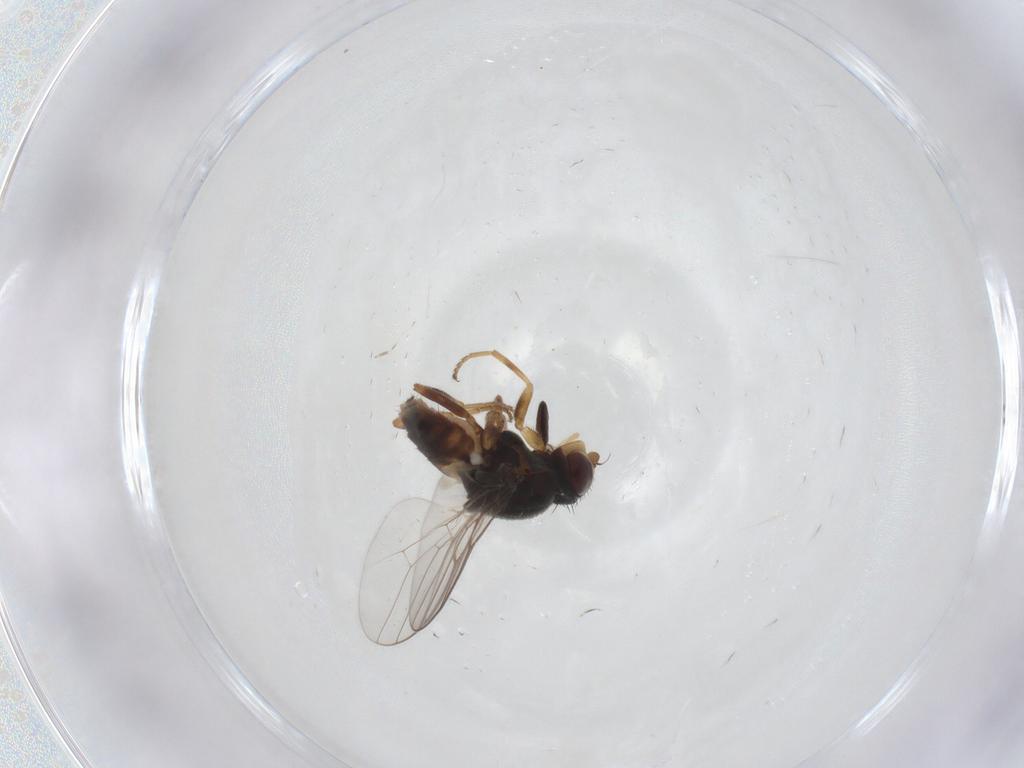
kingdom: Animalia
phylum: Arthropoda
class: Insecta
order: Diptera
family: Chloropidae
